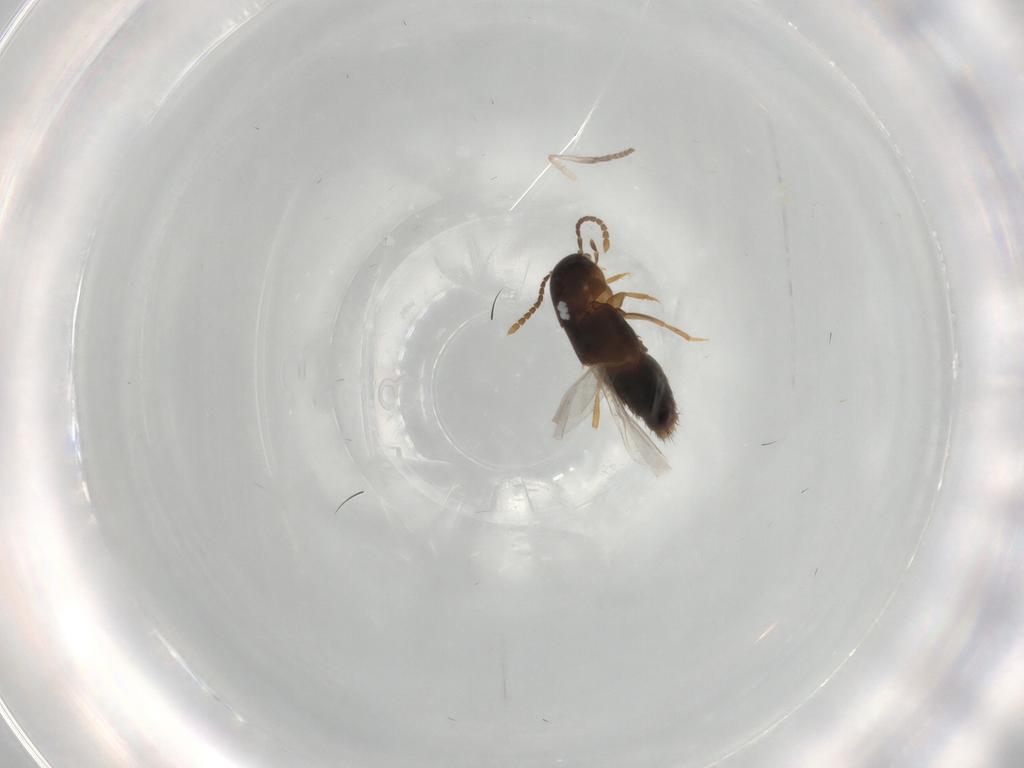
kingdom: Animalia
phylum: Arthropoda
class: Insecta
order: Coleoptera
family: Staphylinidae
